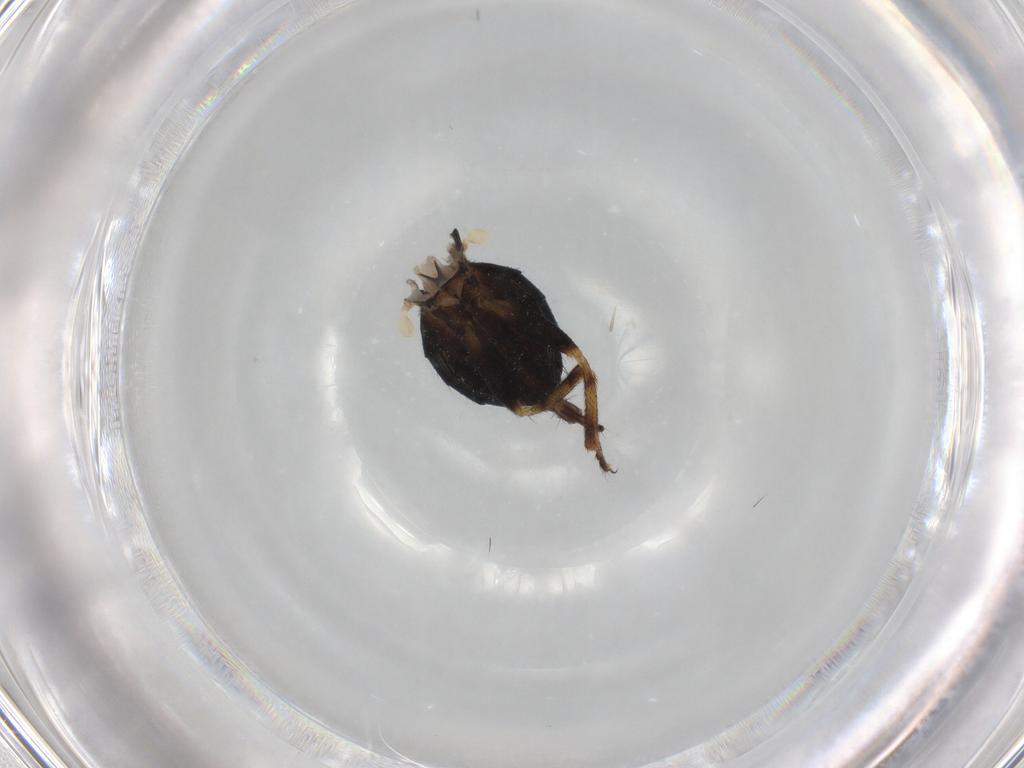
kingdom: Animalia
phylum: Arthropoda
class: Insecta
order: Diptera
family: Piophilidae
